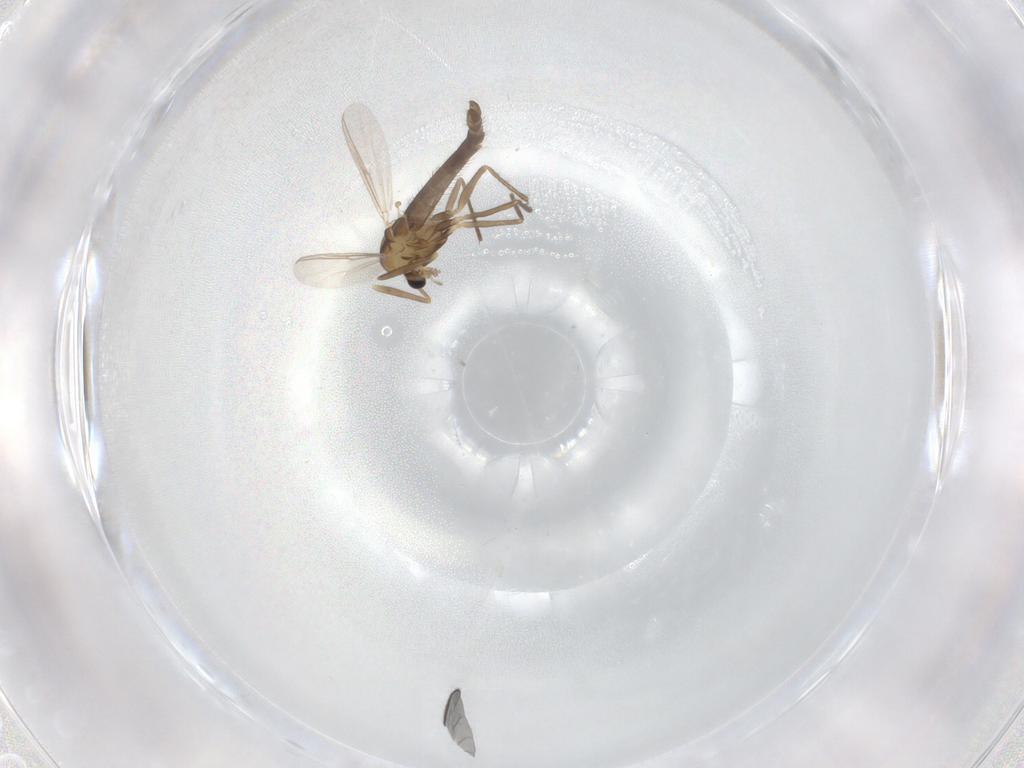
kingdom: Animalia
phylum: Arthropoda
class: Insecta
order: Diptera
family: Chironomidae
